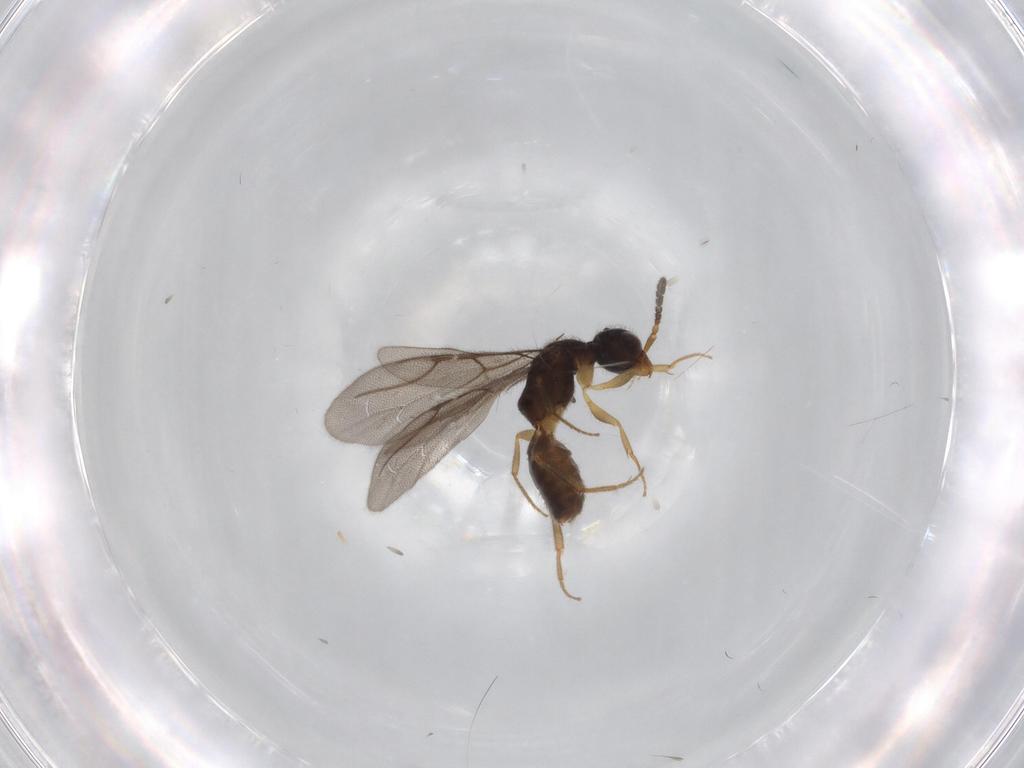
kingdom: Animalia
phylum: Arthropoda
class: Insecta
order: Hymenoptera
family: Bethylidae
